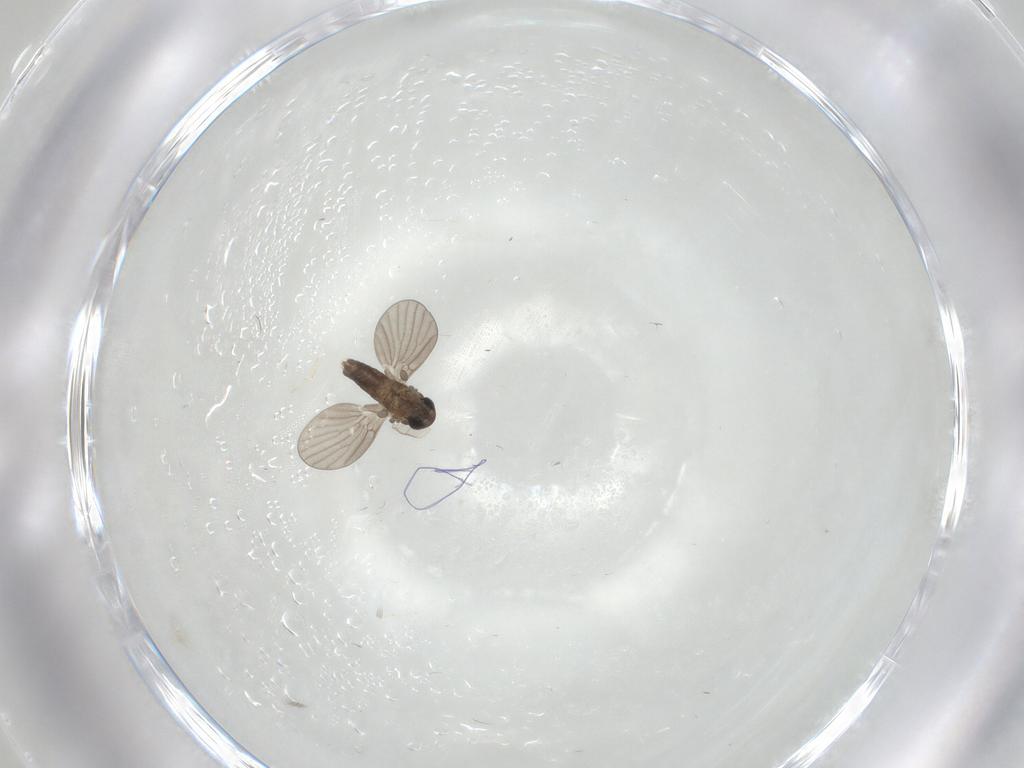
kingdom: Animalia
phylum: Arthropoda
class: Insecta
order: Diptera
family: Cecidomyiidae
